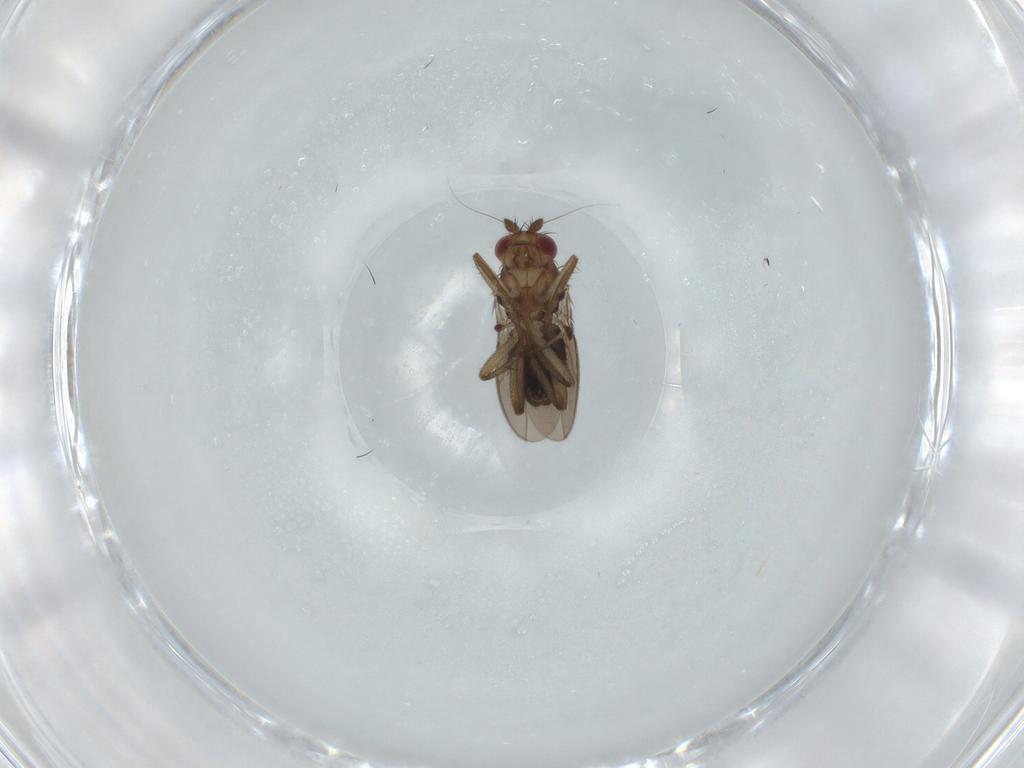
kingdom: Animalia
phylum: Arthropoda
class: Insecta
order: Diptera
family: Sphaeroceridae
